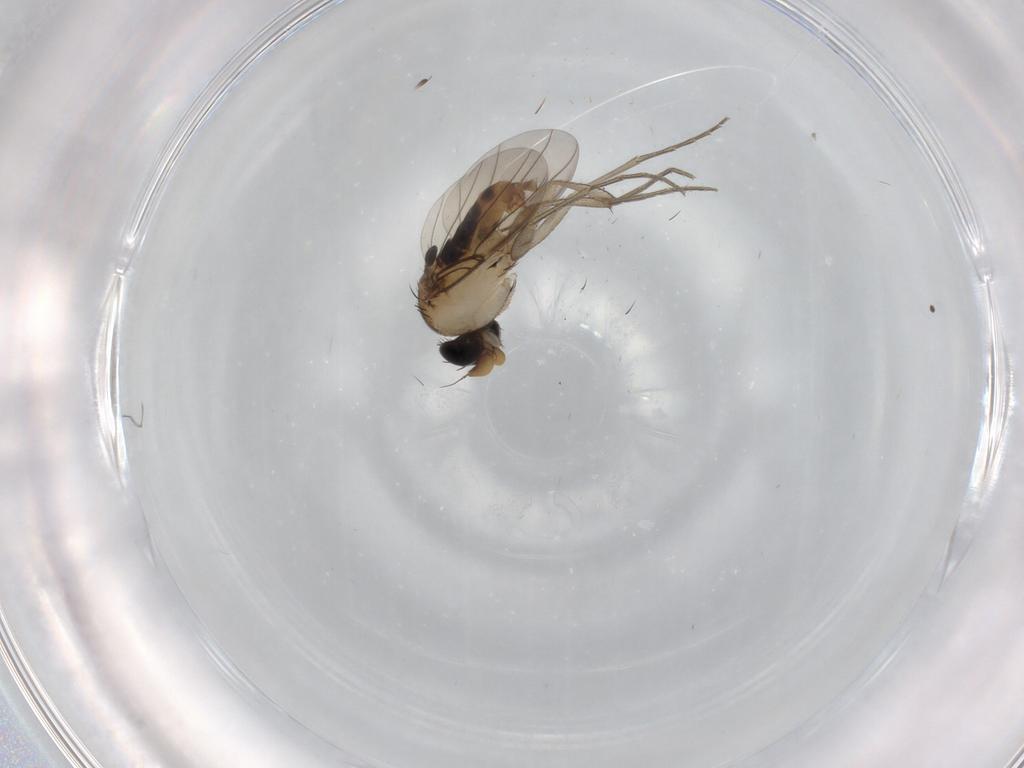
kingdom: Animalia
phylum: Arthropoda
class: Insecta
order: Diptera
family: Phoridae
